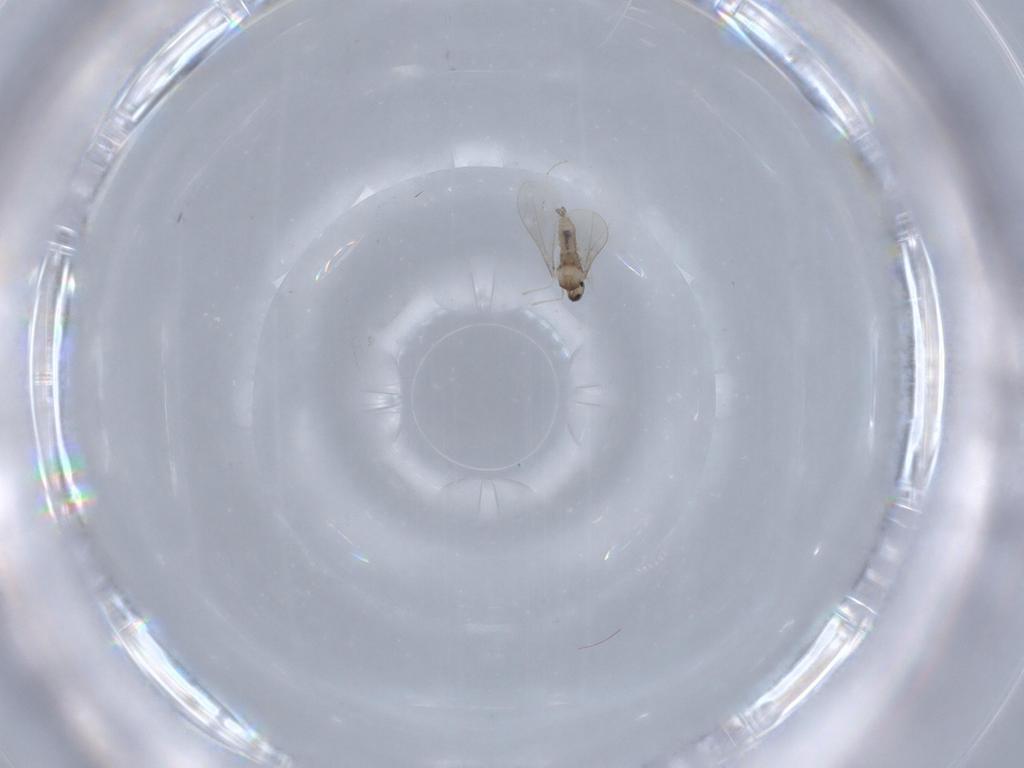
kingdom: Animalia
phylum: Arthropoda
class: Insecta
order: Diptera
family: Cecidomyiidae
